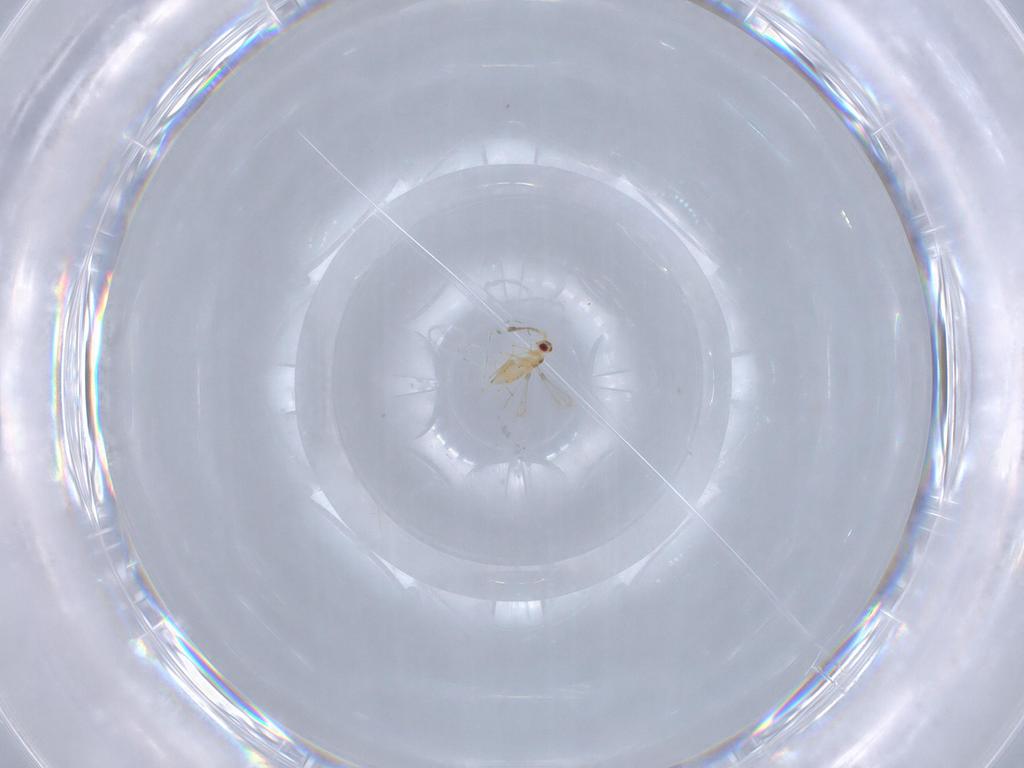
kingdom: Animalia
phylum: Arthropoda
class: Insecta
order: Hymenoptera
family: Mymaridae
